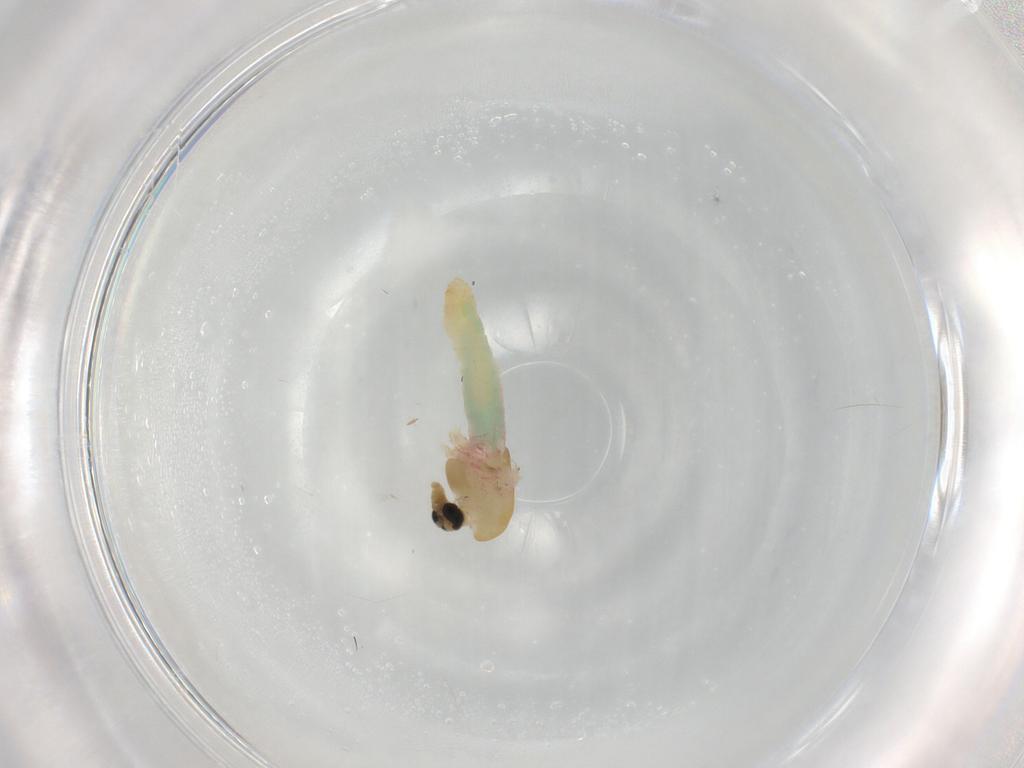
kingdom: Animalia
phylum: Arthropoda
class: Insecta
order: Diptera
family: Chironomidae
